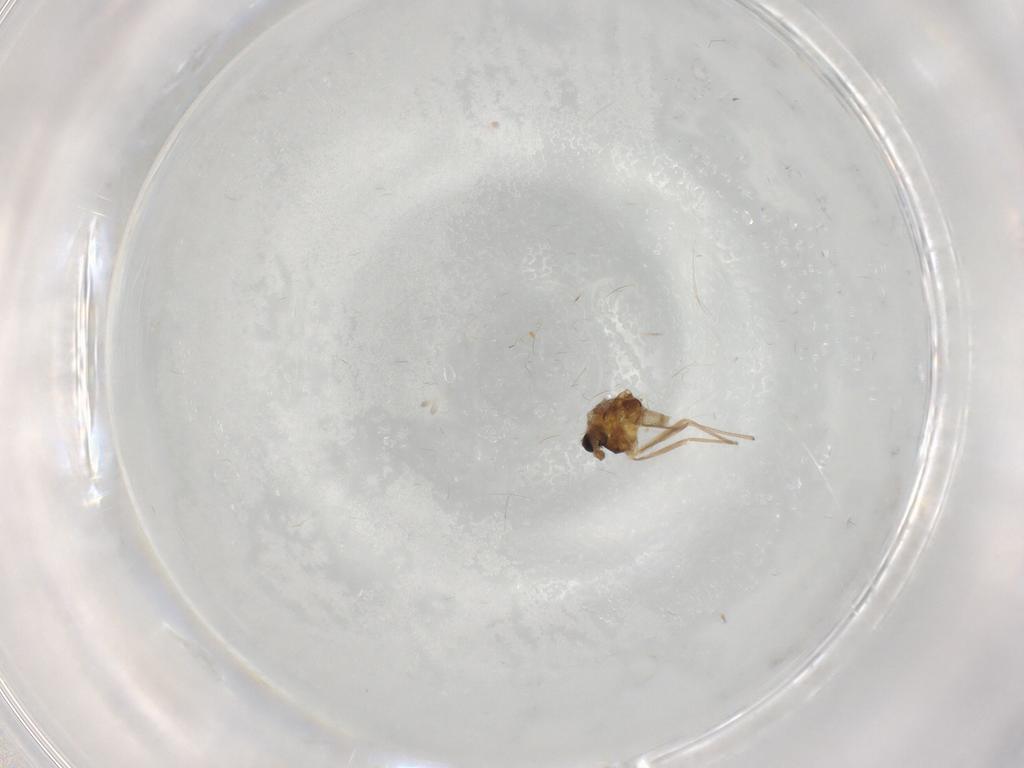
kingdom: Animalia
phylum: Arthropoda
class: Insecta
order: Diptera
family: Chironomidae
